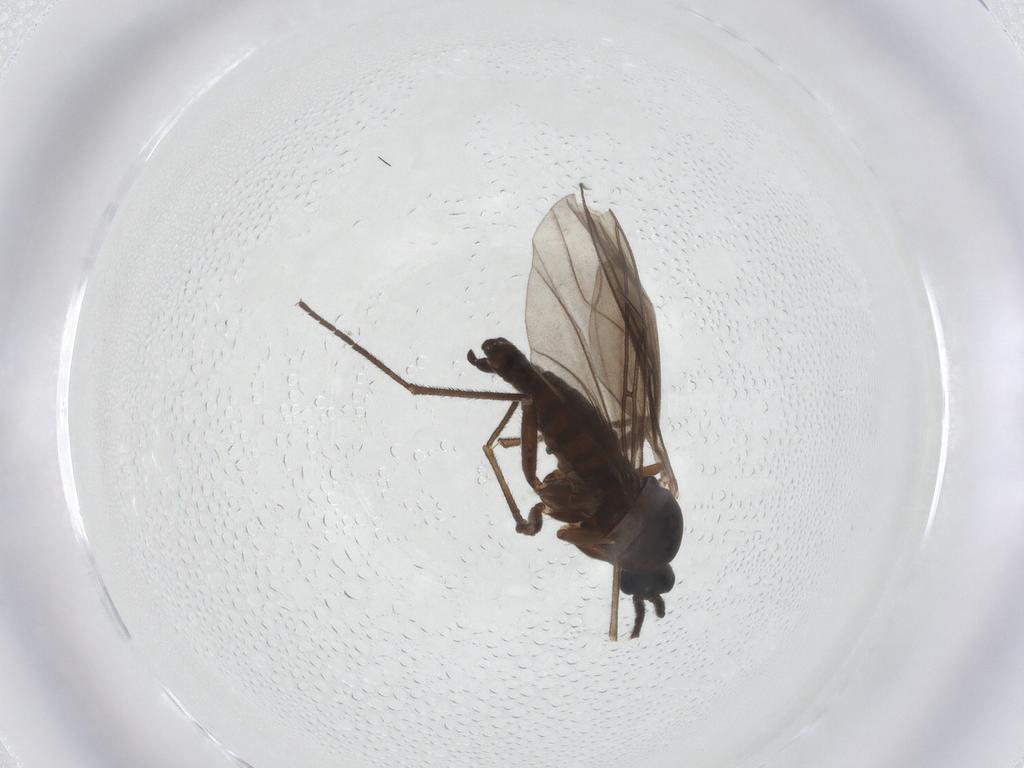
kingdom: Animalia
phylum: Arthropoda
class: Insecta
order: Diptera
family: Sciaridae
